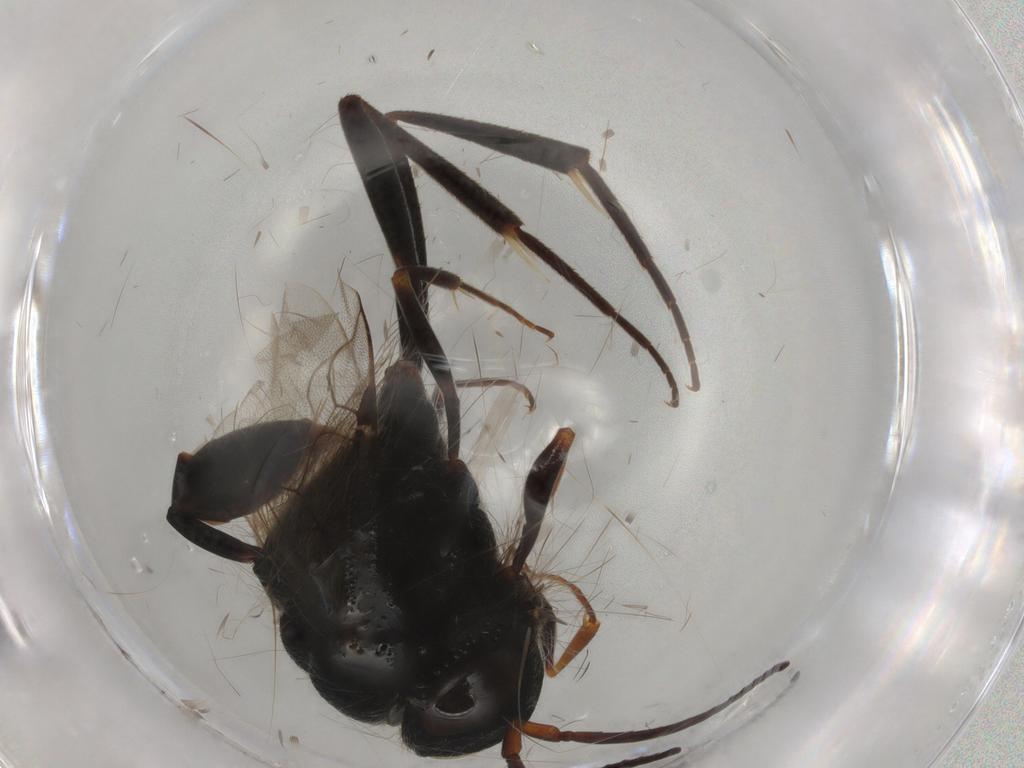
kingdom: Animalia
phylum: Arthropoda
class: Insecta
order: Hymenoptera
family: Evaniidae
